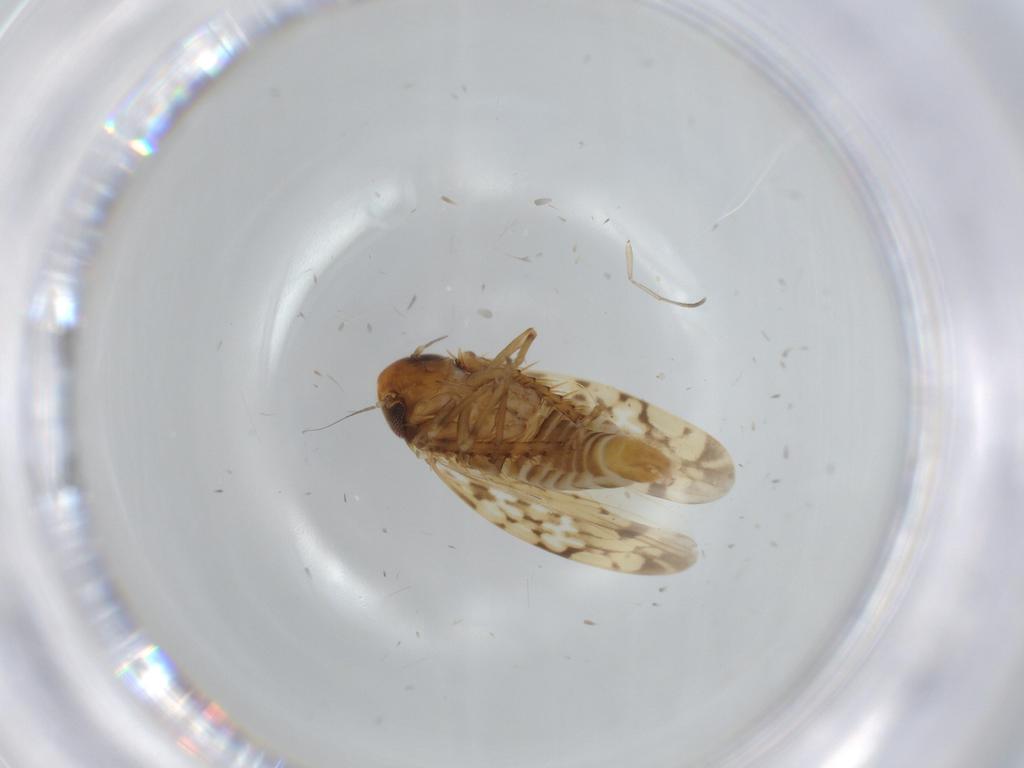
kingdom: Animalia
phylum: Arthropoda
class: Insecta
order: Hemiptera
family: Cicadellidae
